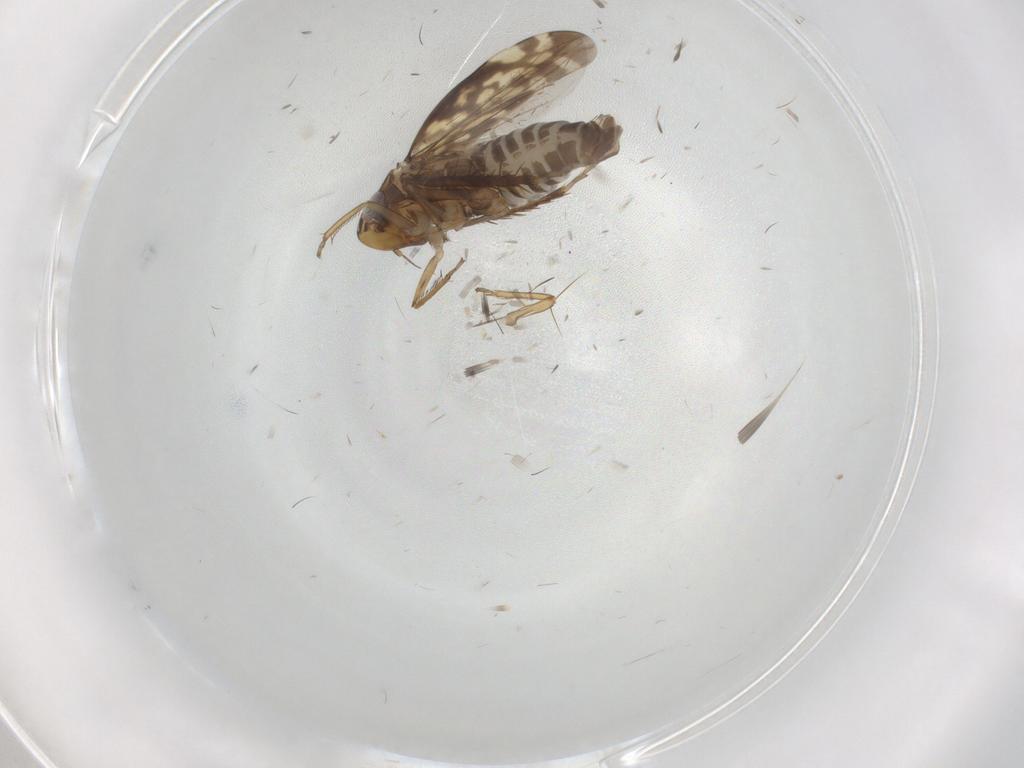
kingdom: Animalia
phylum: Arthropoda
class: Insecta
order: Hemiptera
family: Cicadellidae
